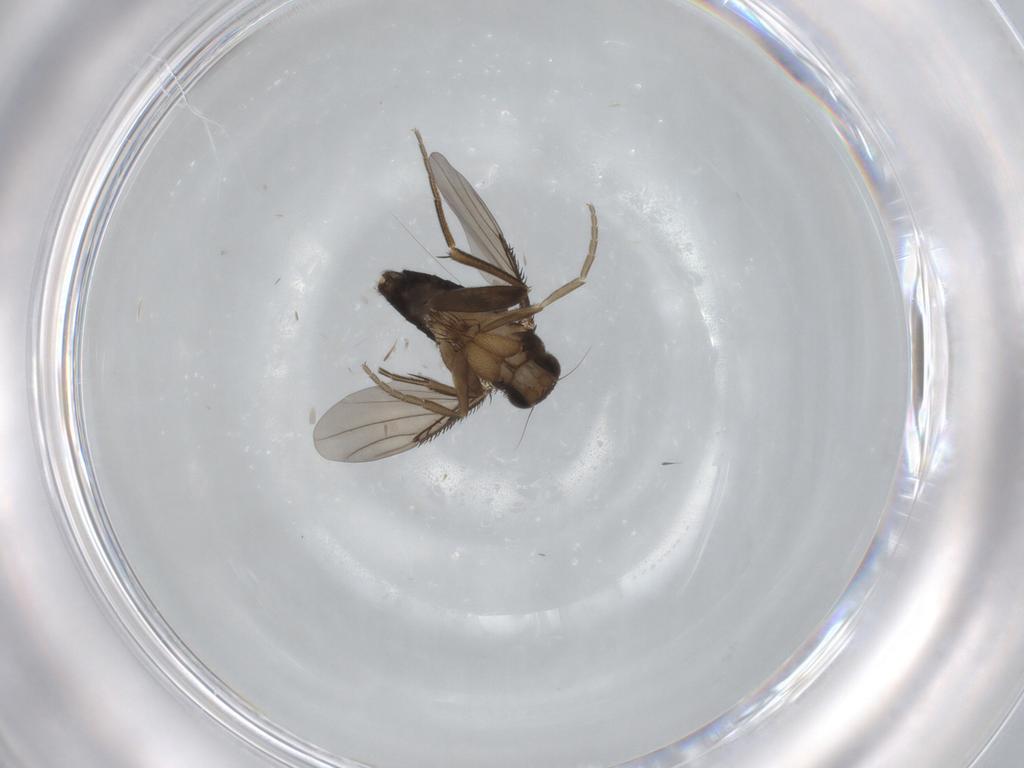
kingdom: Animalia
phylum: Arthropoda
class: Insecta
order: Diptera
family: Phoridae
